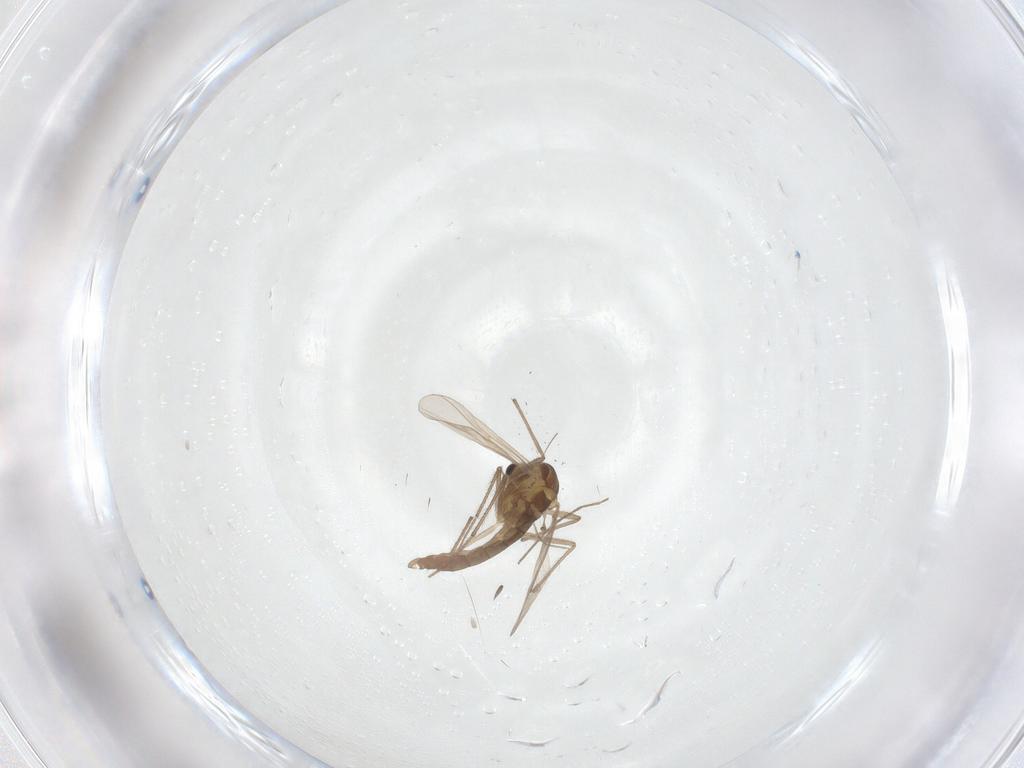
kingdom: Animalia
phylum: Arthropoda
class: Insecta
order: Diptera
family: Chironomidae
